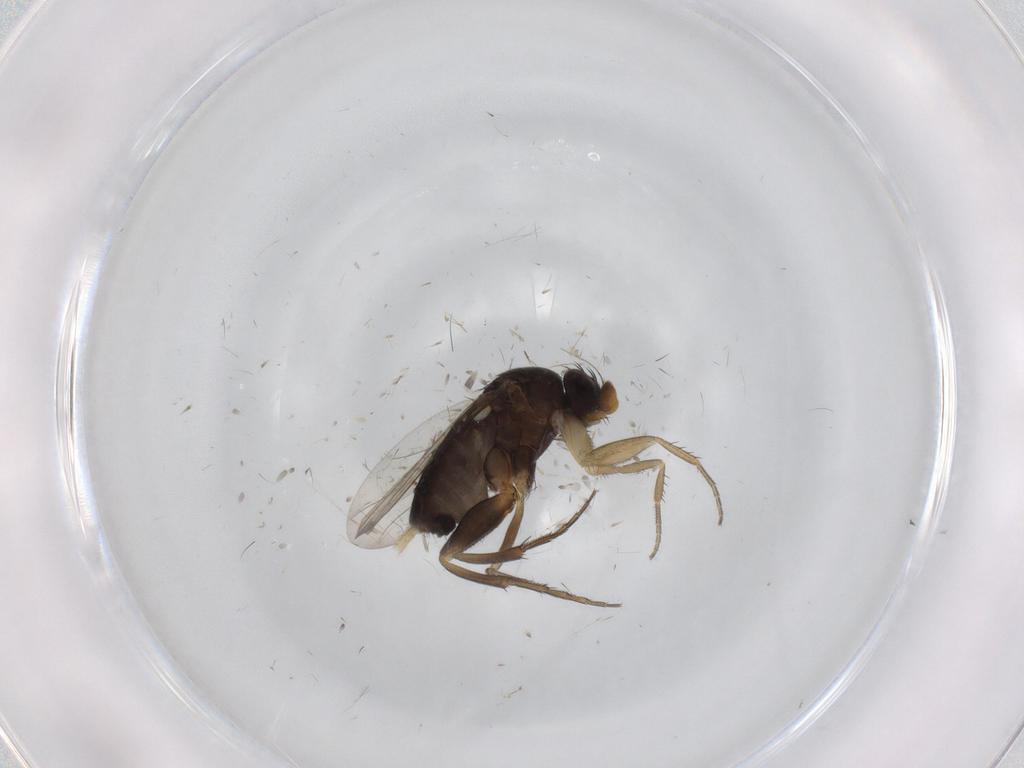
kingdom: Animalia
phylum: Arthropoda
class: Insecta
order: Diptera
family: Phoridae
